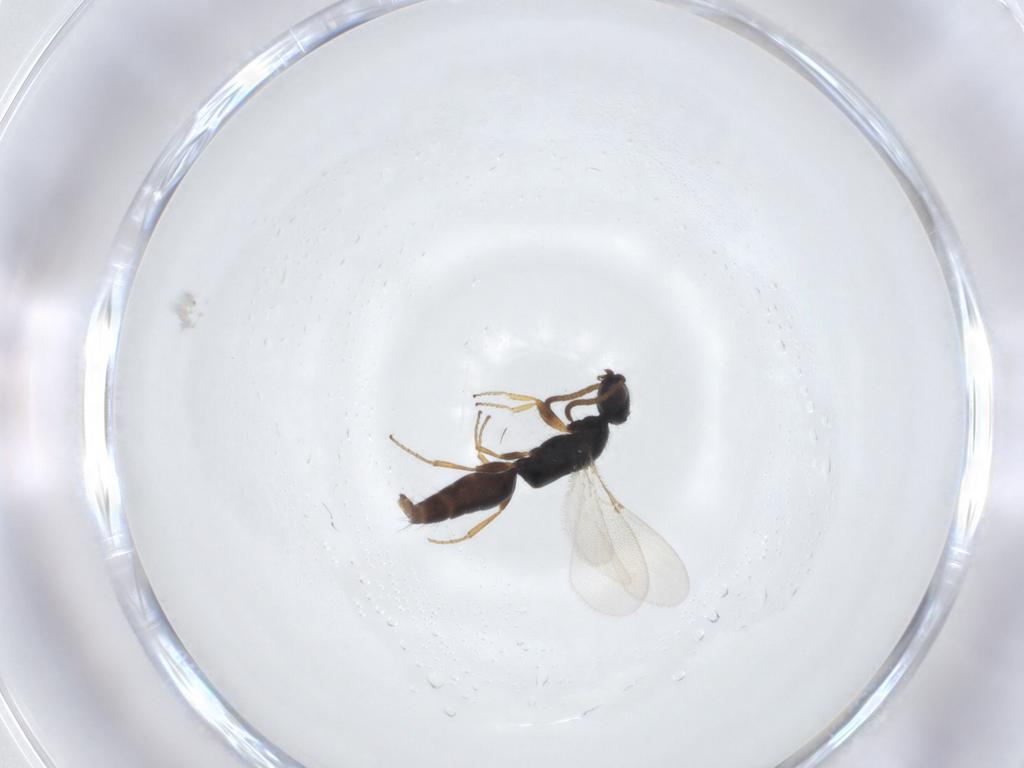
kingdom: Animalia
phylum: Arthropoda
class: Insecta
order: Hymenoptera
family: Bethylidae
